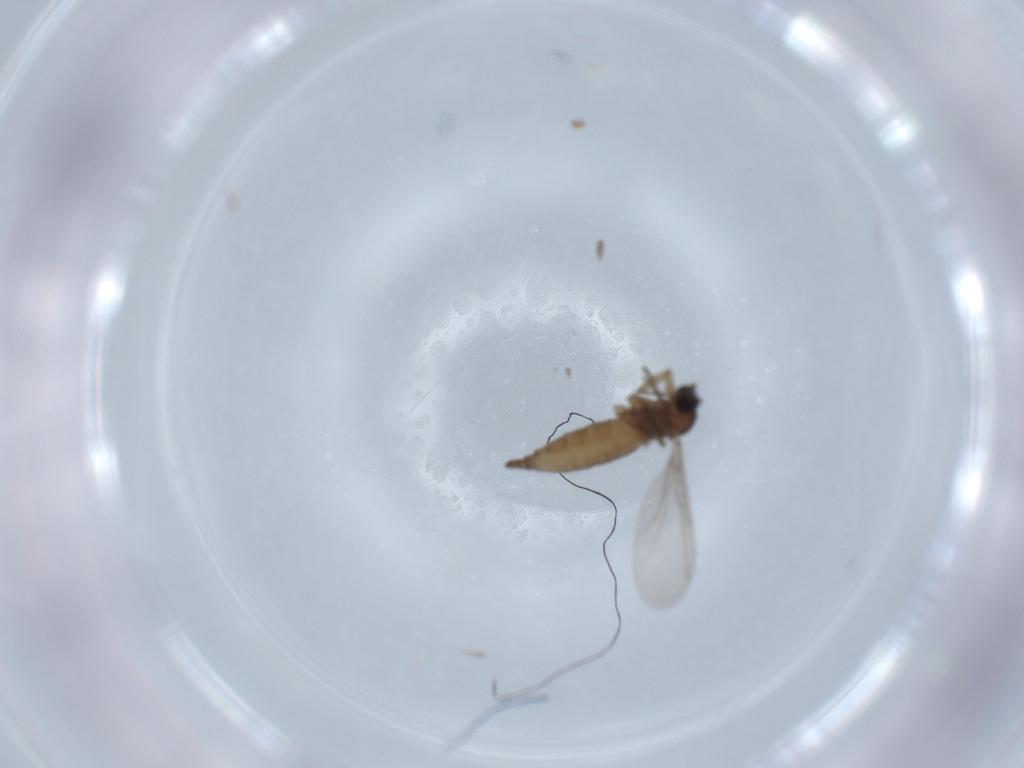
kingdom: Animalia
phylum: Arthropoda
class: Insecta
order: Diptera
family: Sciaridae
